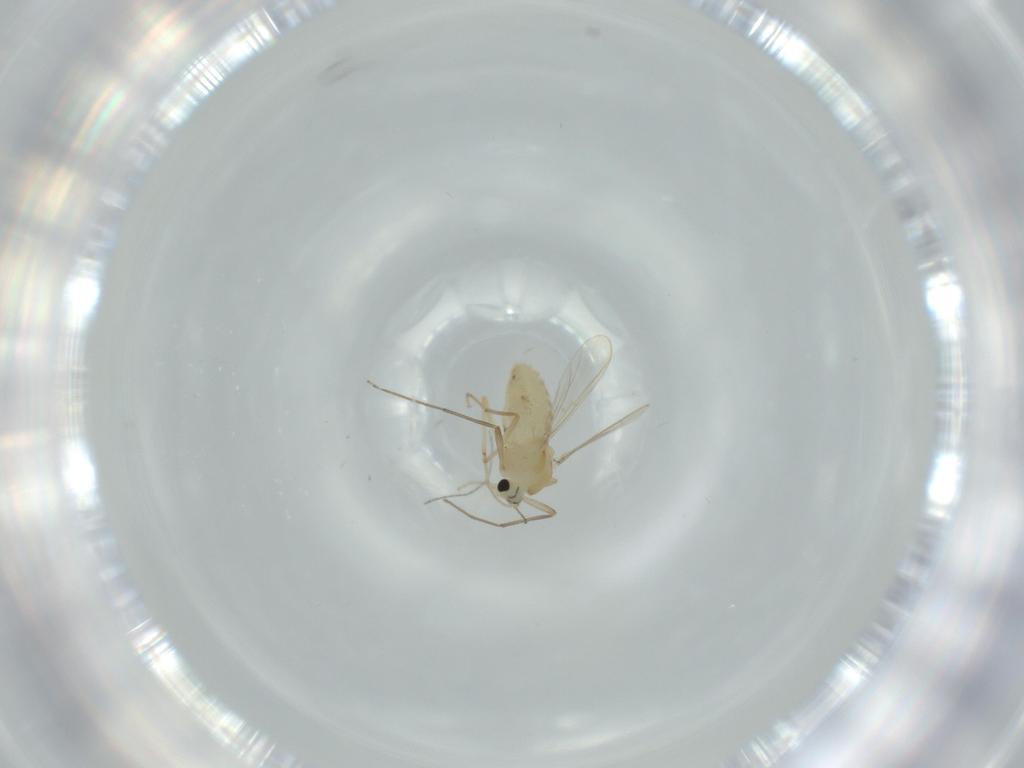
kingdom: Animalia
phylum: Arthropoda
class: Insecta
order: Diptera
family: Chironomidae
